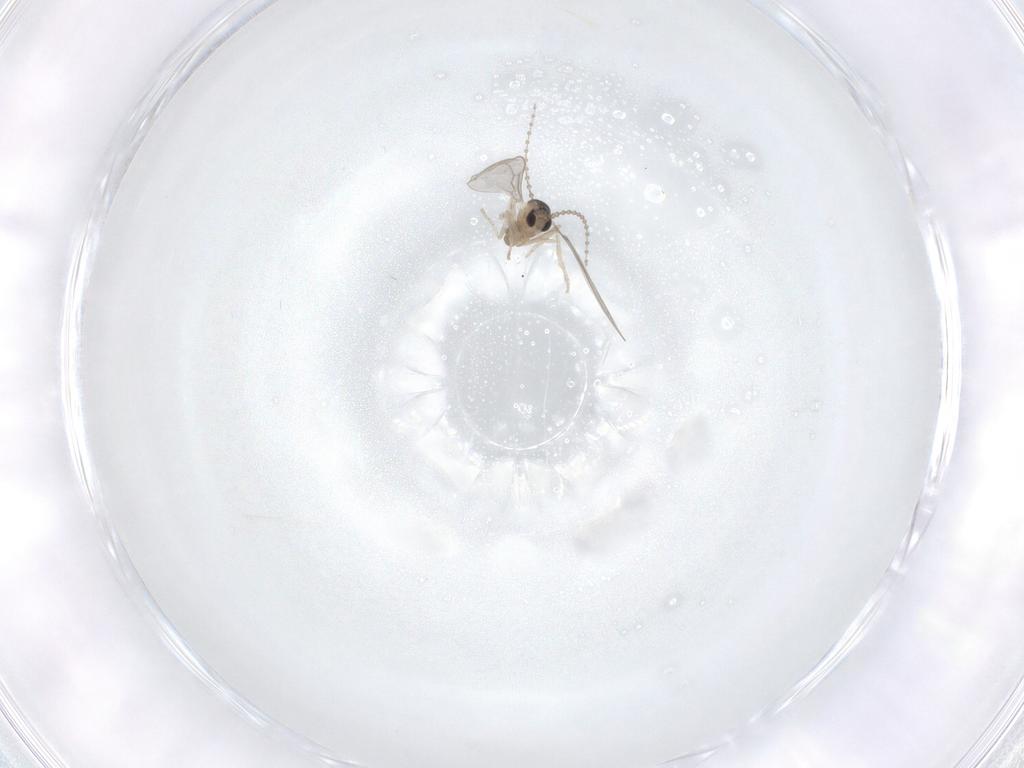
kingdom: Animalia
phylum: Arthropoda
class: Insecta
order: Diptera
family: Cecidomyiidae
